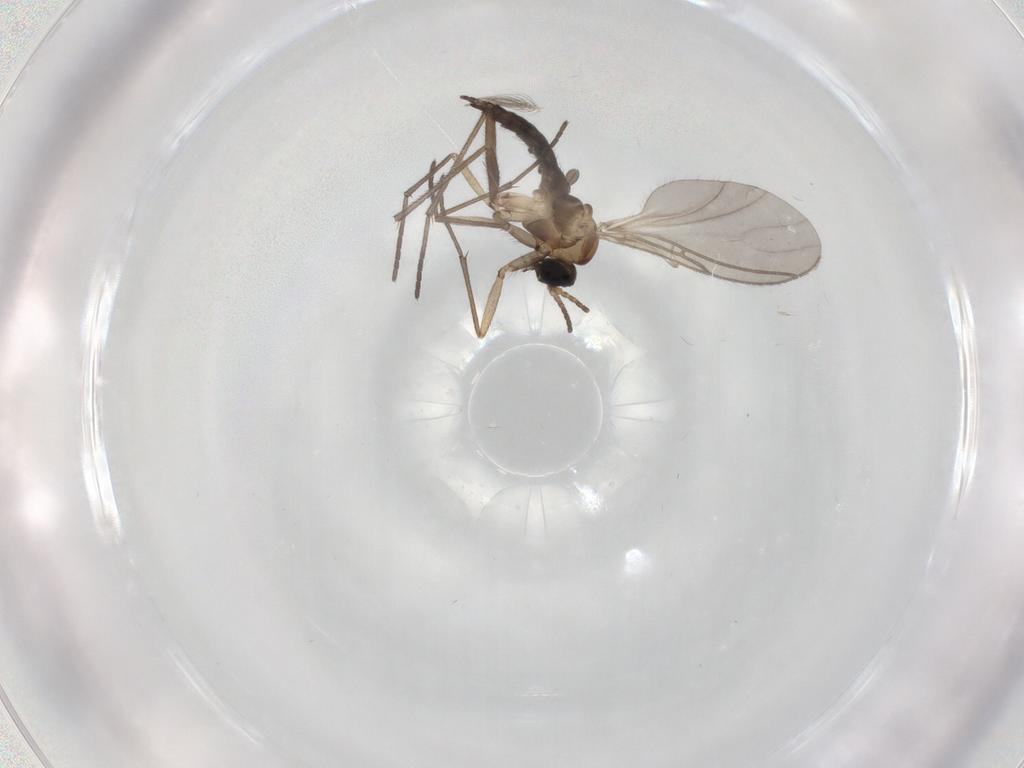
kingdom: Animalia
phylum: Arthropoda
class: Insecta
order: Diptera
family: Sciaridae
